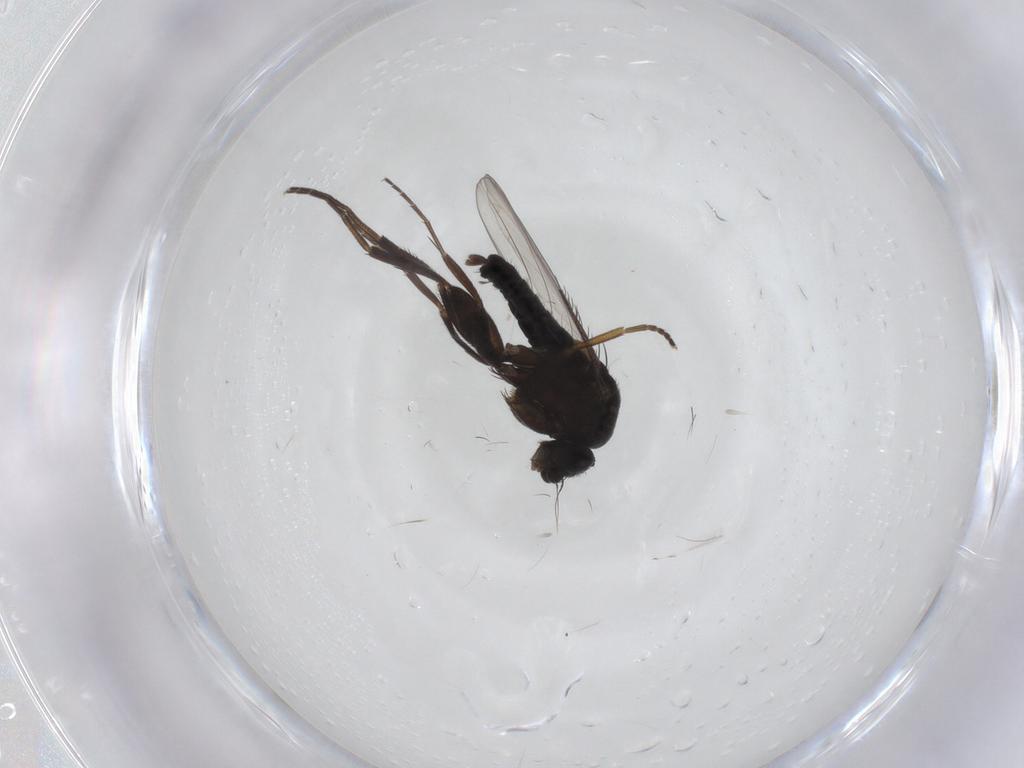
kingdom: Animalia
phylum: Arthropoda
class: Insecta
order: Diptera
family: Phoridae
